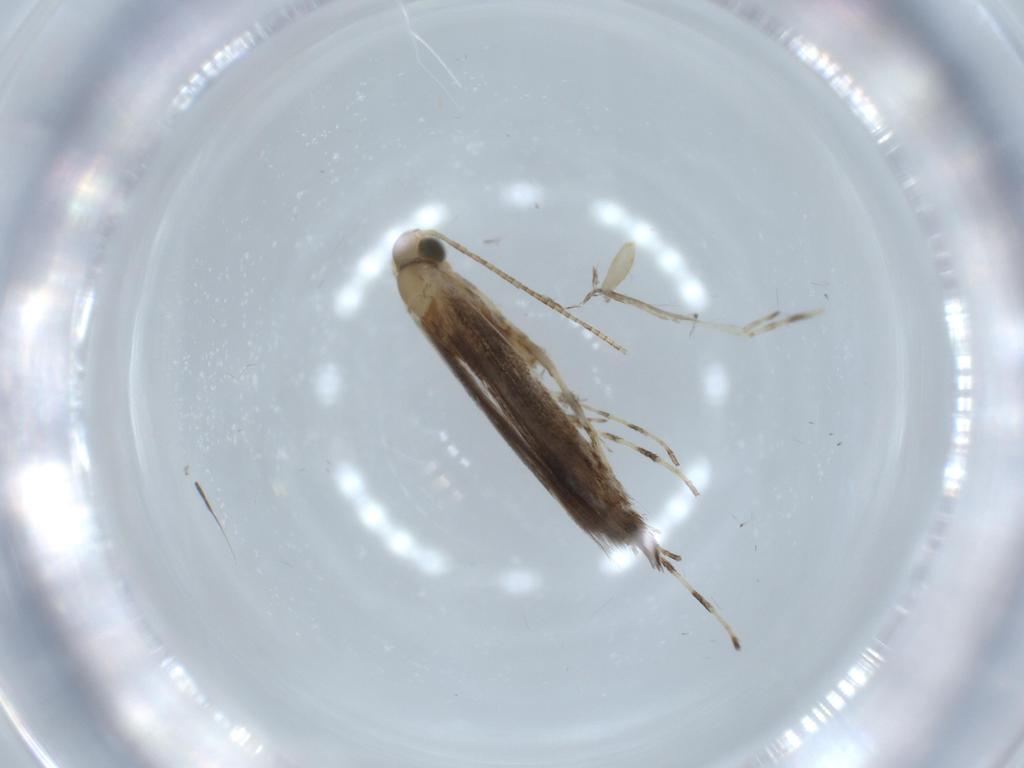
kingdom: Animalia
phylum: Arthropoda
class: Insecta
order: Lepidoptera
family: Gracillariidae
